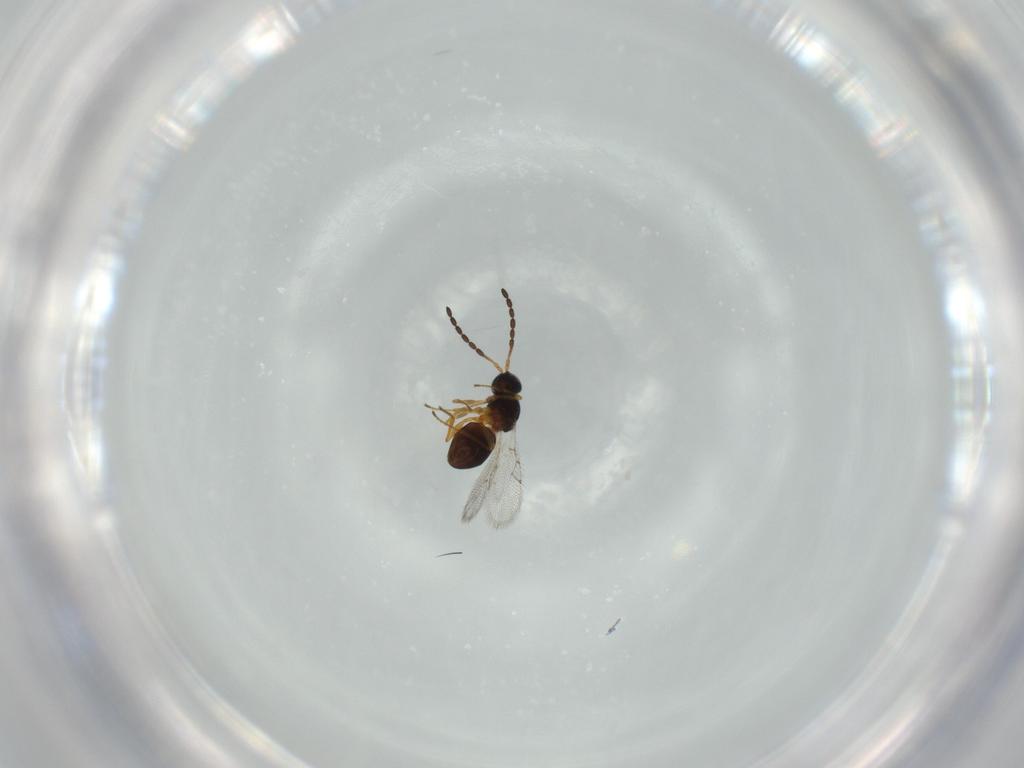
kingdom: Animalia
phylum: Arthropoda
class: Insecta
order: Hymenoptera
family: Figitidae
